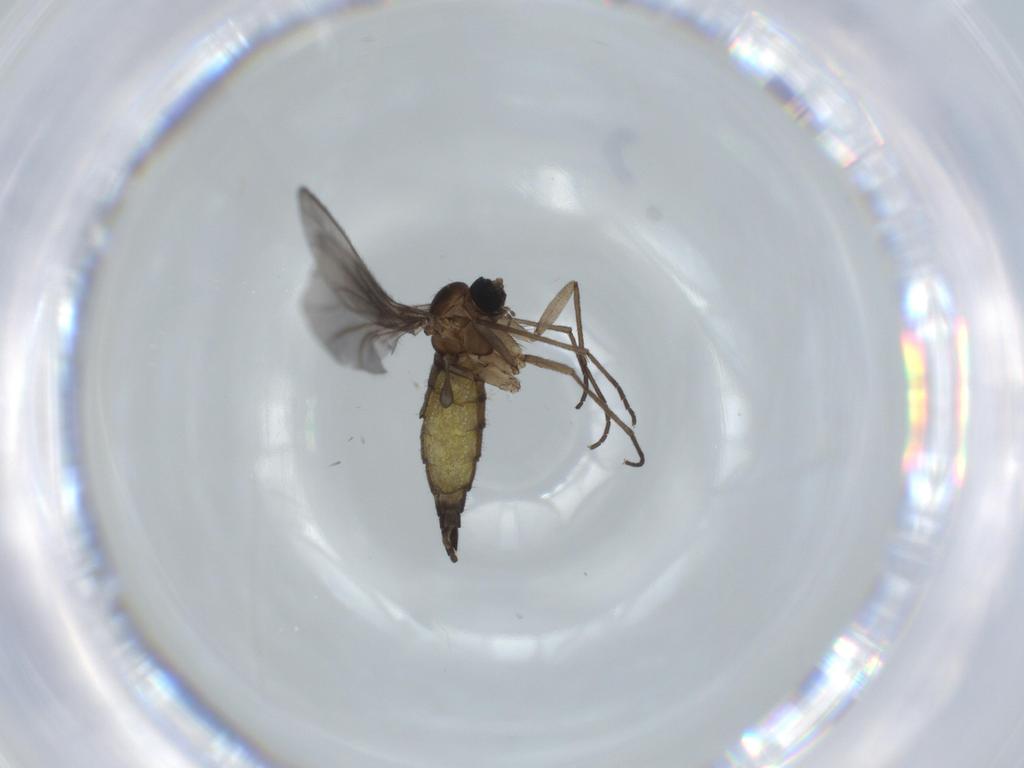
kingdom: Animalia
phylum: Arthropoda
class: Insecta
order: Diptera
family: Sciaridae
